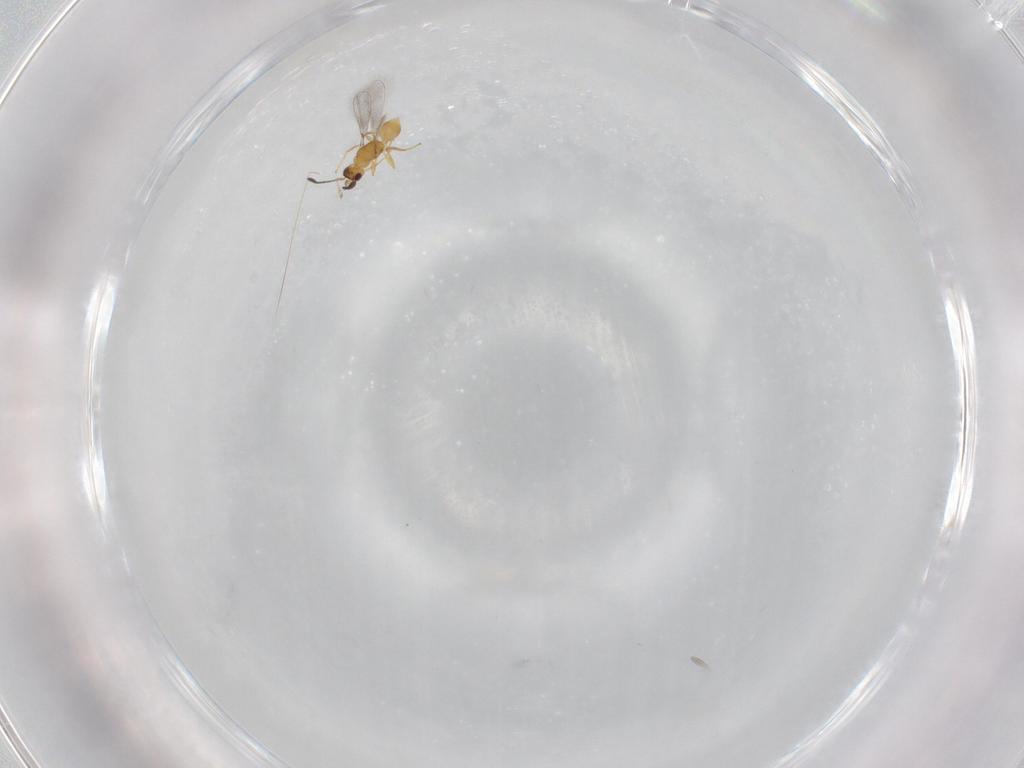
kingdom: Animalia
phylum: Arthropoda
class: Insecta
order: Hymenoptera
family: Mymaridae
